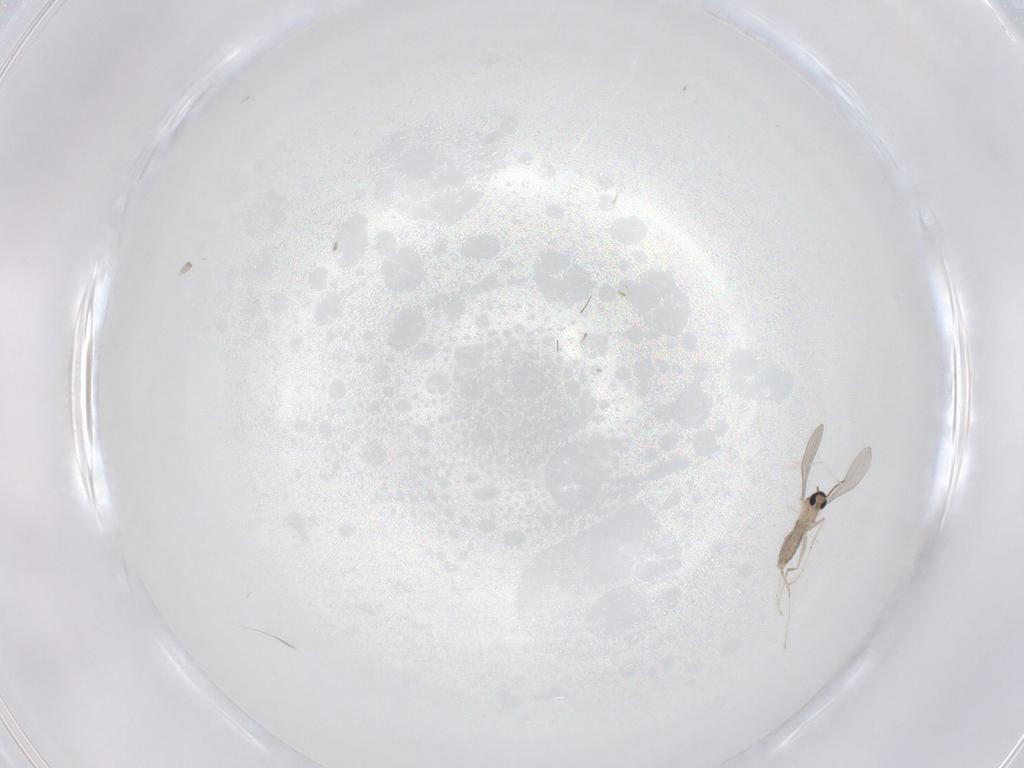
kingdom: Animalia
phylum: Arthropoda
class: Insecta
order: Diptera
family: Cecidomyiidae
